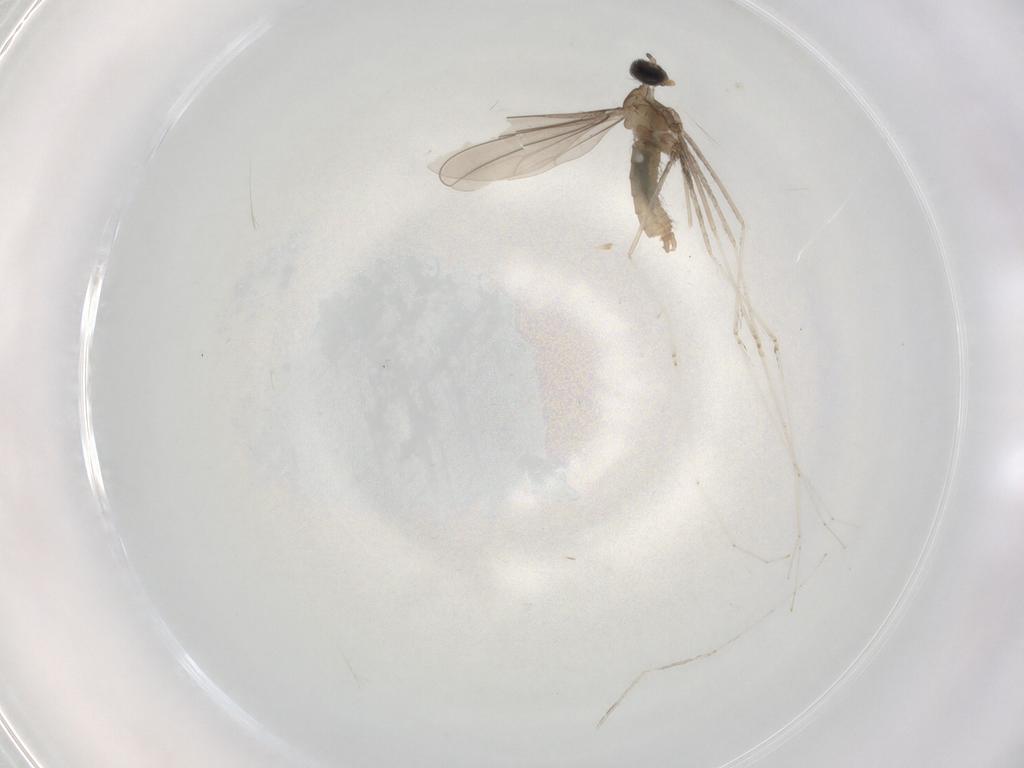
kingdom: Animalia
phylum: Arthropoda
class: Insecta
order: Diptera
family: Cecidomyiidae
